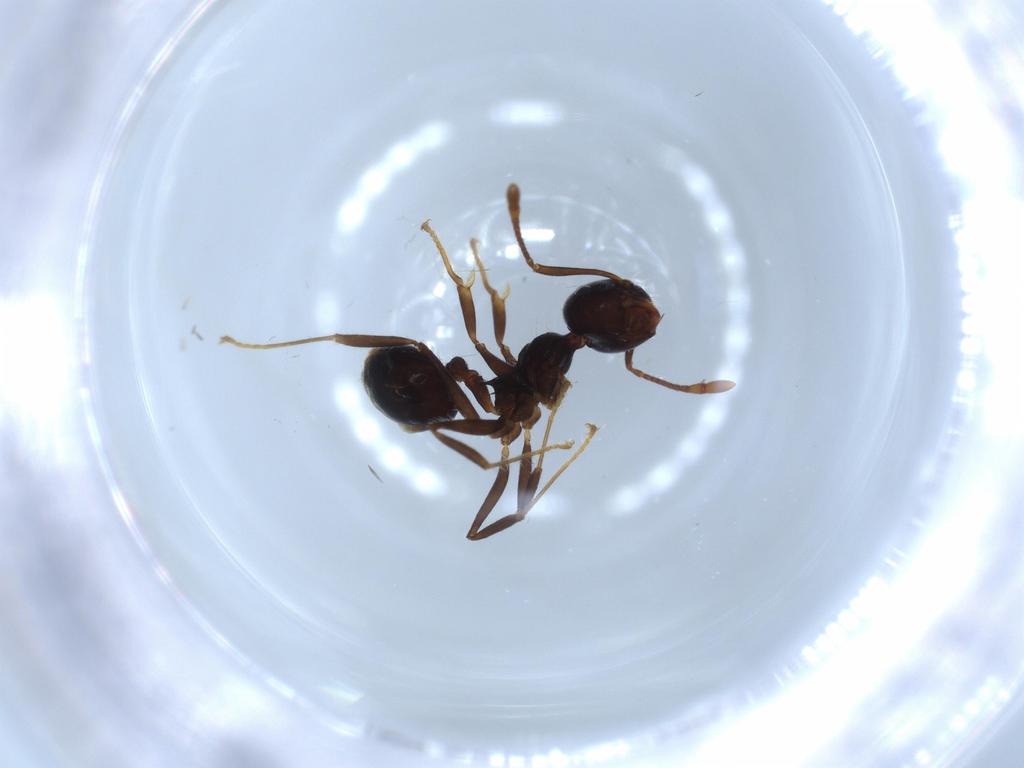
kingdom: Animalia
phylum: Arthropoda
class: Insecta
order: Hymenoptera
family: Formicidae
